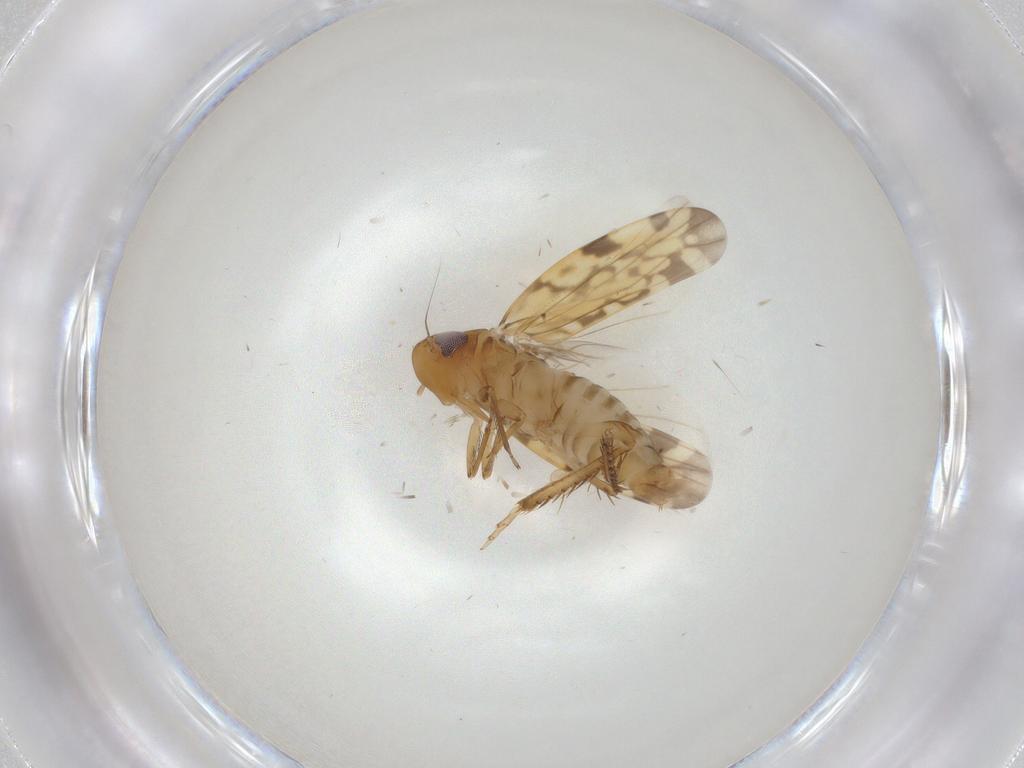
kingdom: Animalia
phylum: Arthropoda
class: Insecta
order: Hemiptera
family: Cicadellidae
